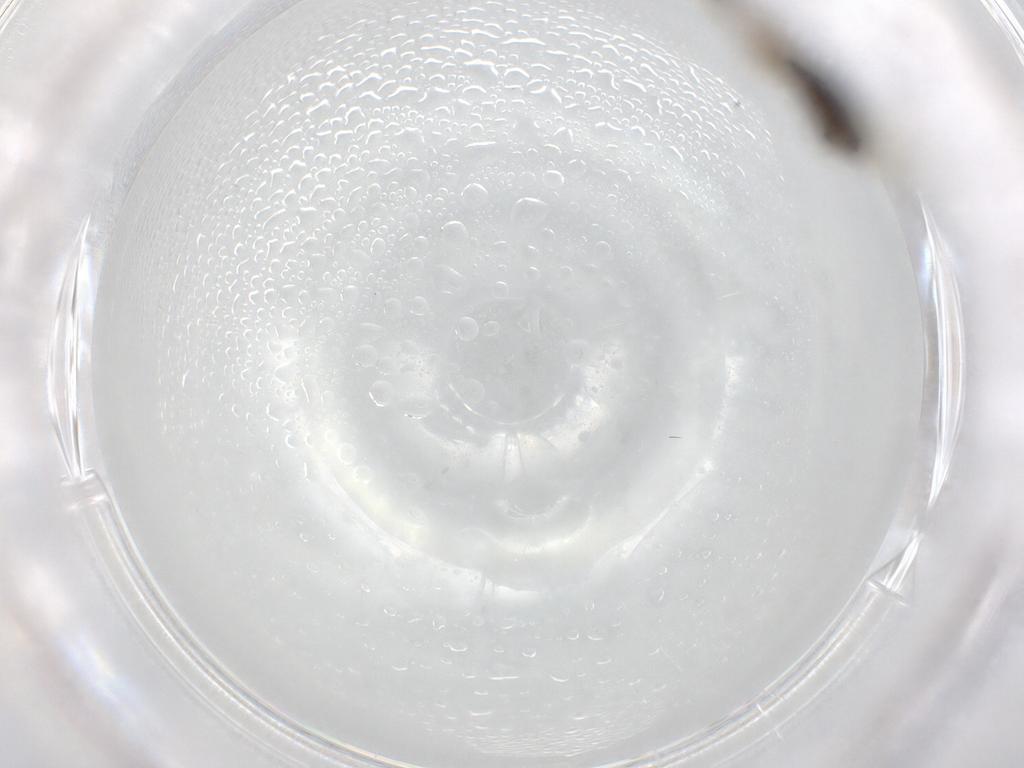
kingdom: Animalia
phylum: Arthropoda
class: Insecta
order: Diptera
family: Phoridae
